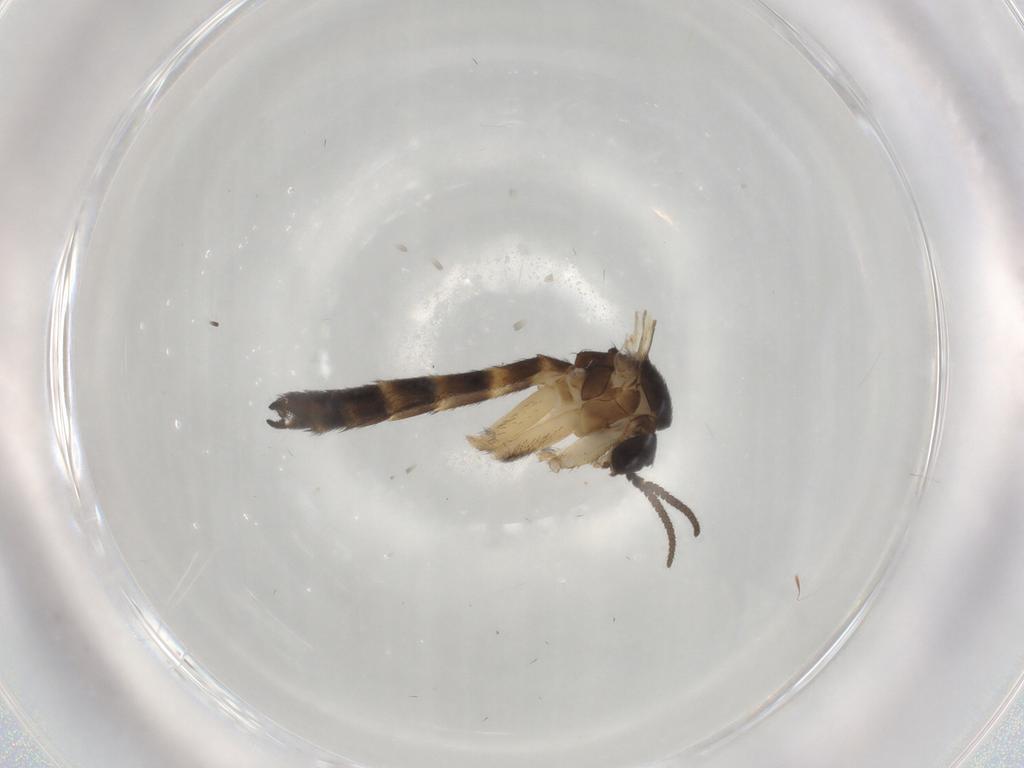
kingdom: Animalia
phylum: Arthropoda
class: Insecta
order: Diptera
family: Keroplatidae
